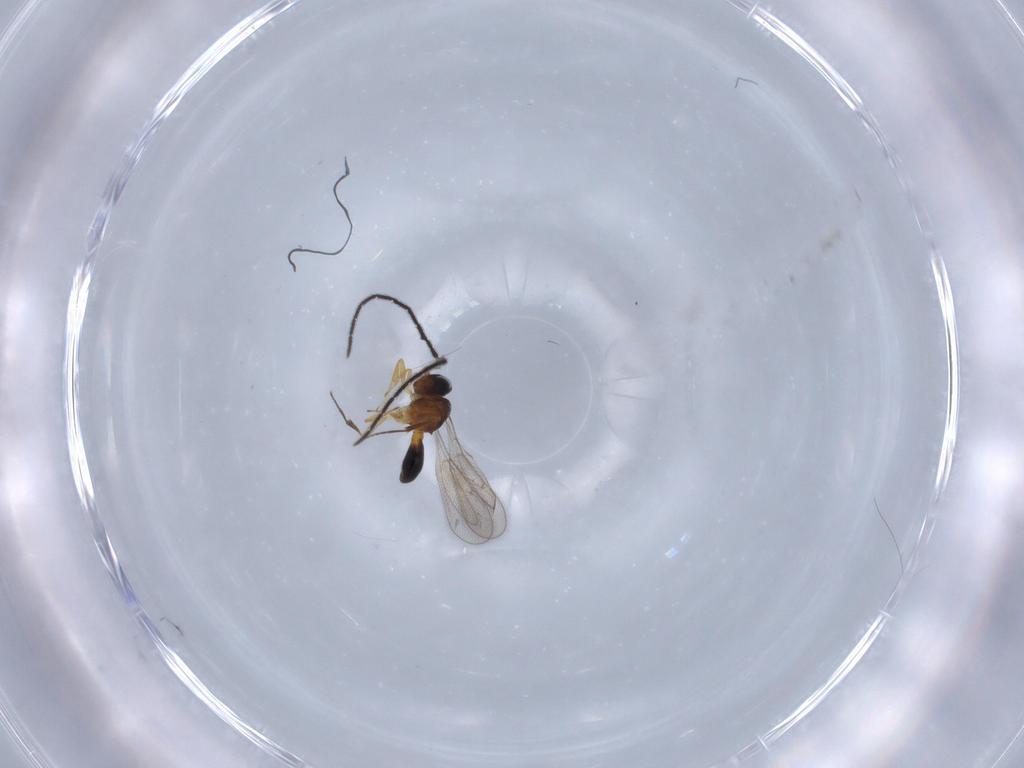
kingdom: Animalia
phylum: Arthropoda
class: Insecta
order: Hymenoptera
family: Scelionidae
